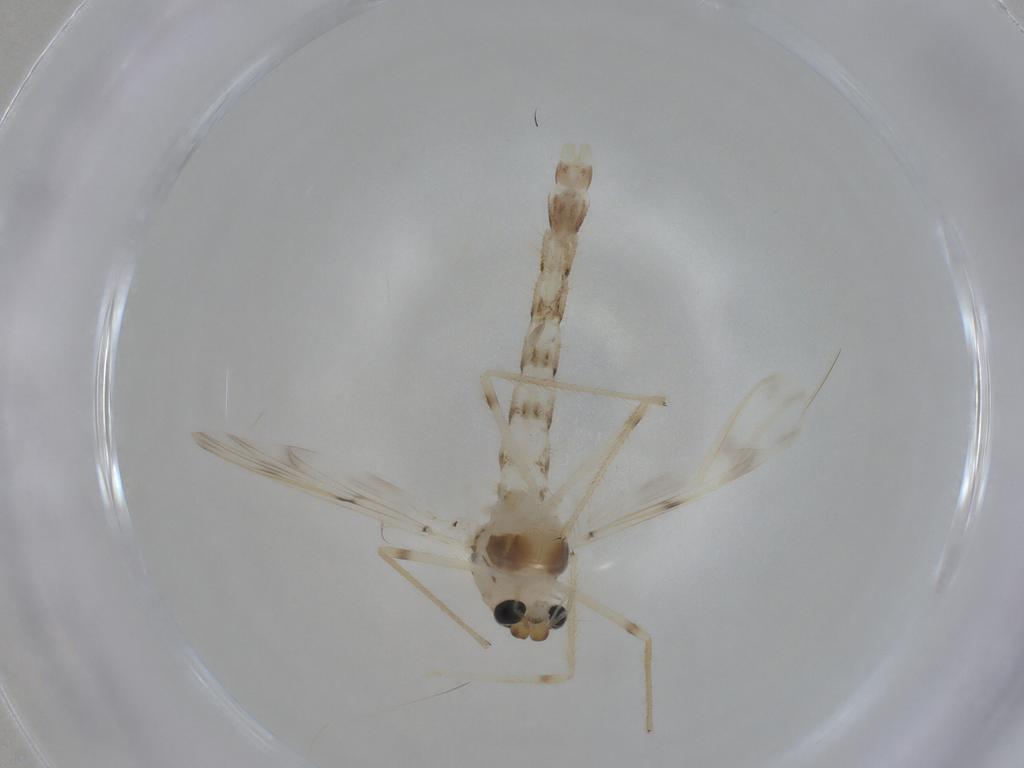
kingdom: Animalia
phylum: Arthropoda
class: Insecta
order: Diptera
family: Chironomidae
